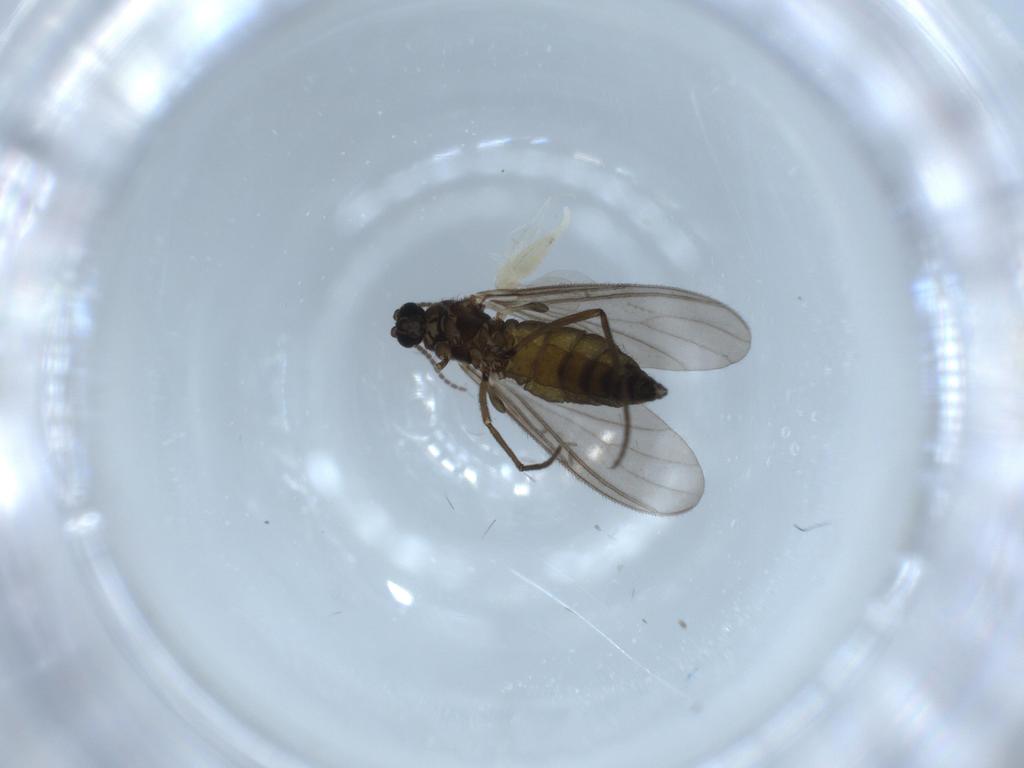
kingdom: Animalia
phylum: Arthropoda
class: Insecta
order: Diptera
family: Sciaridae
